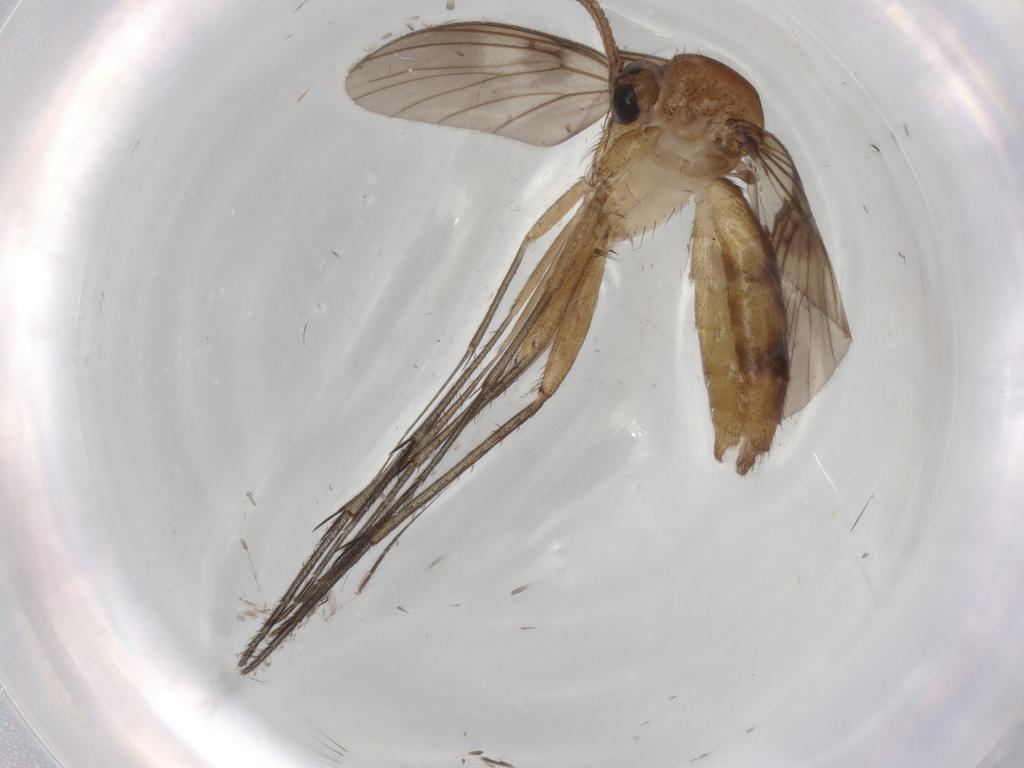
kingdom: Animalia
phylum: Arthropoda
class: Insecta
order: Diptera
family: Mycetophilidae
